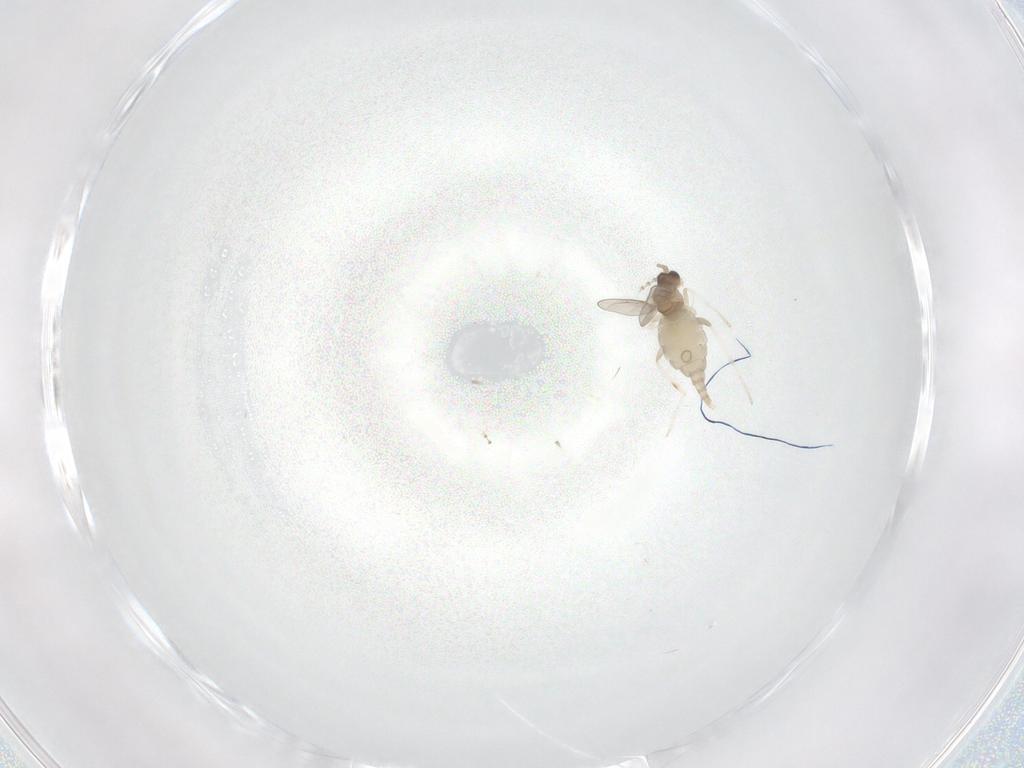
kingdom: Animalia
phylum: Arthropoda
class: Insecta
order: Diptera
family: Cecidomyiidae
